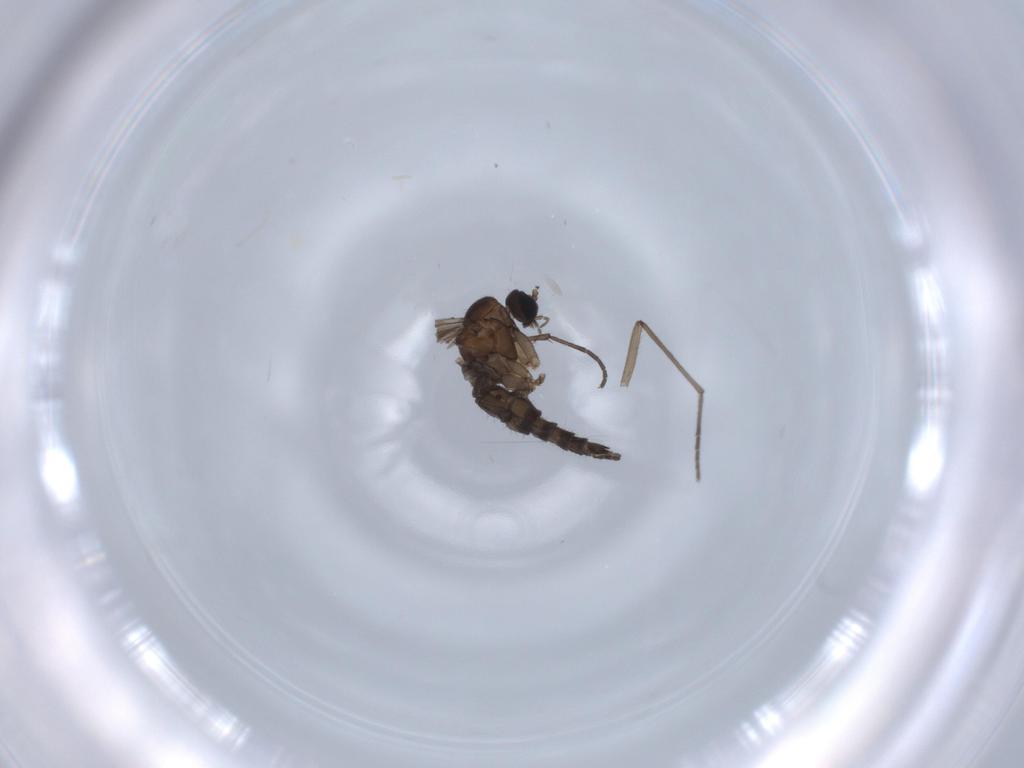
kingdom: Animalia
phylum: Arthropoda
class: Insecta
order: Diptera
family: Sciaridae
